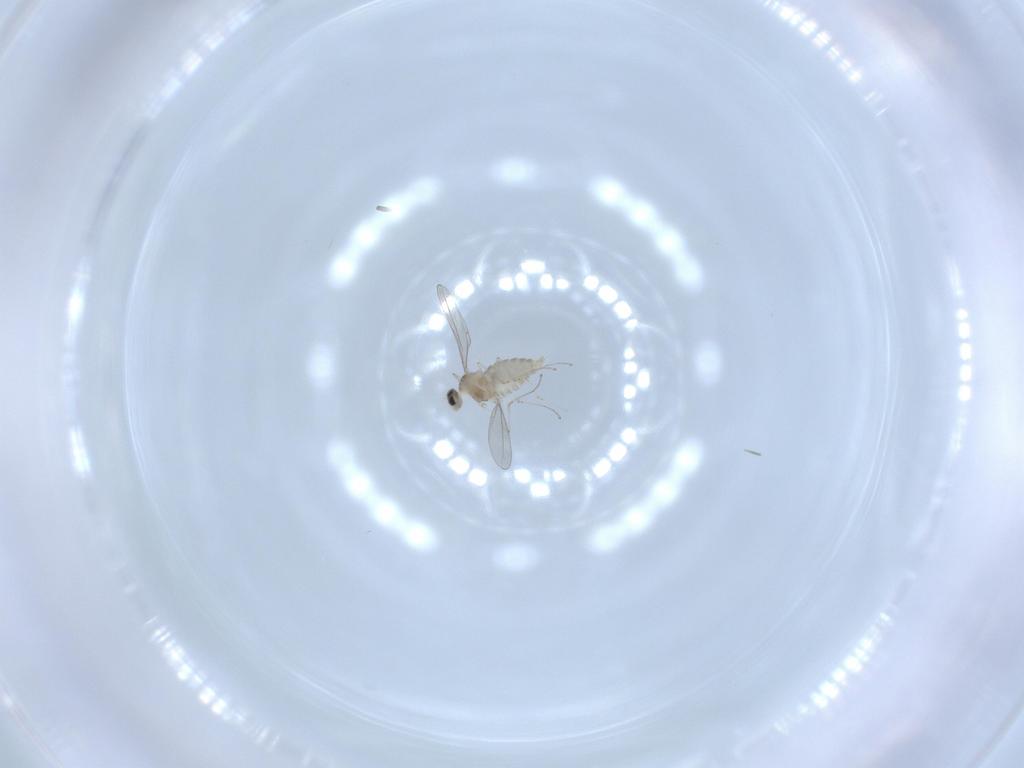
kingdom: Animalia
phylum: Arthropoda
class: Insecta
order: Diptera
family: Cecidomyiidae
